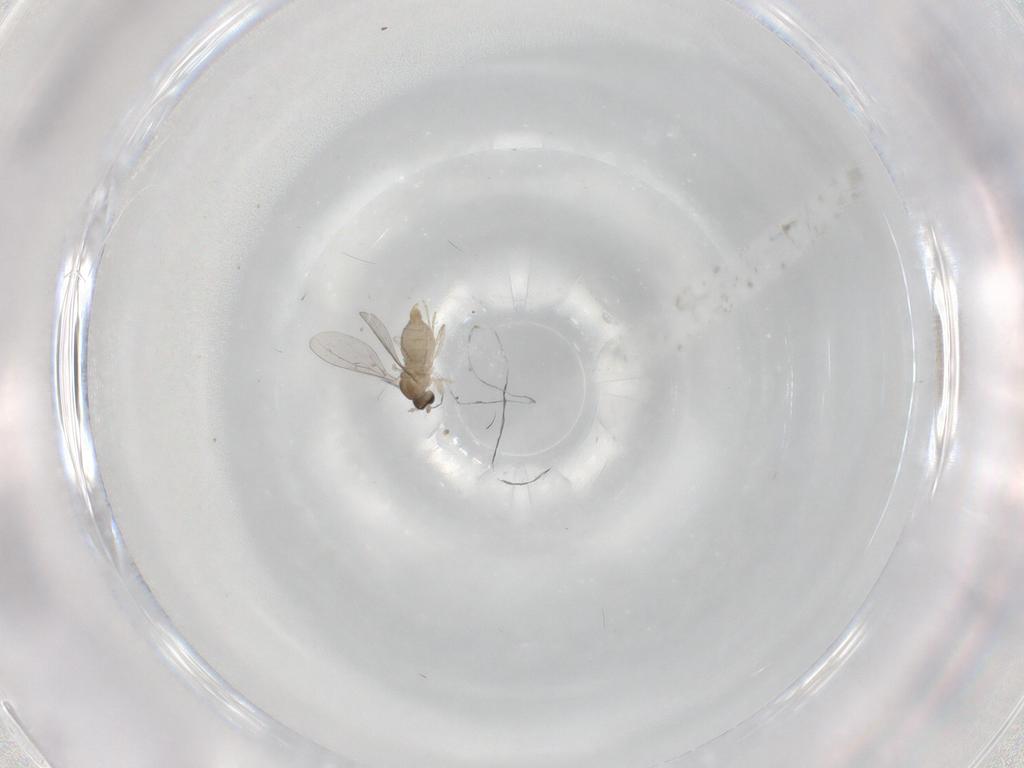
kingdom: Animalia
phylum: Arthropoda
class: Insecta
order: Diptera
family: Cecidomyiidae
